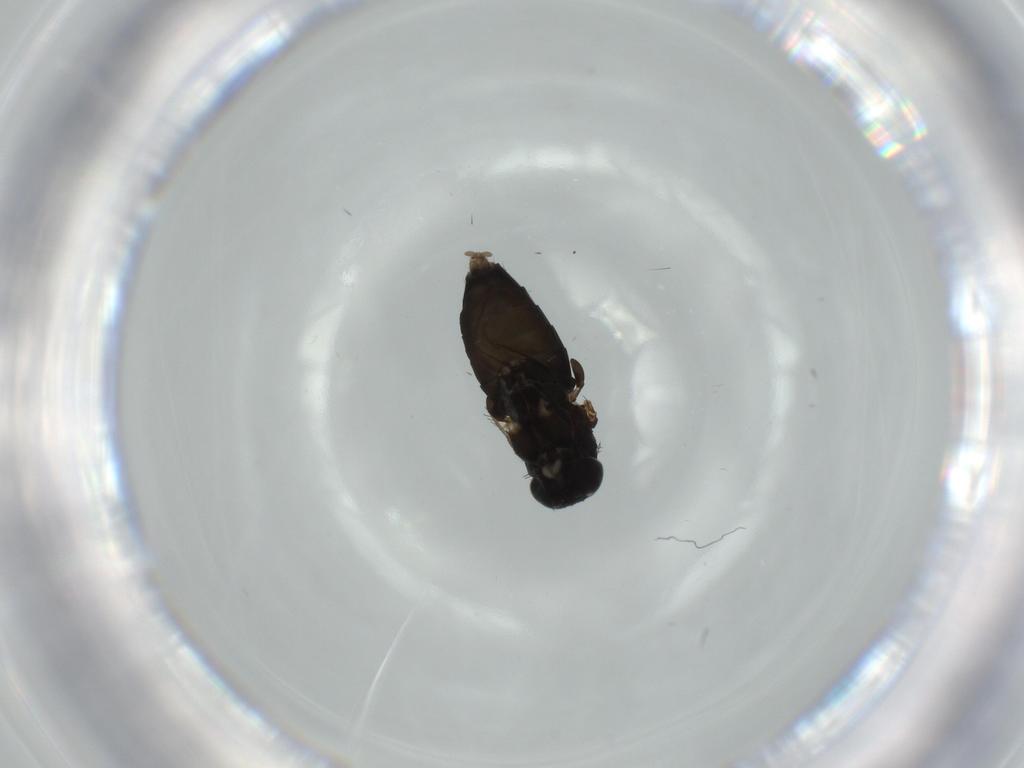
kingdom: Animalia
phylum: Arthropoda
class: Insecta
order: Diptera
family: Phoridae
